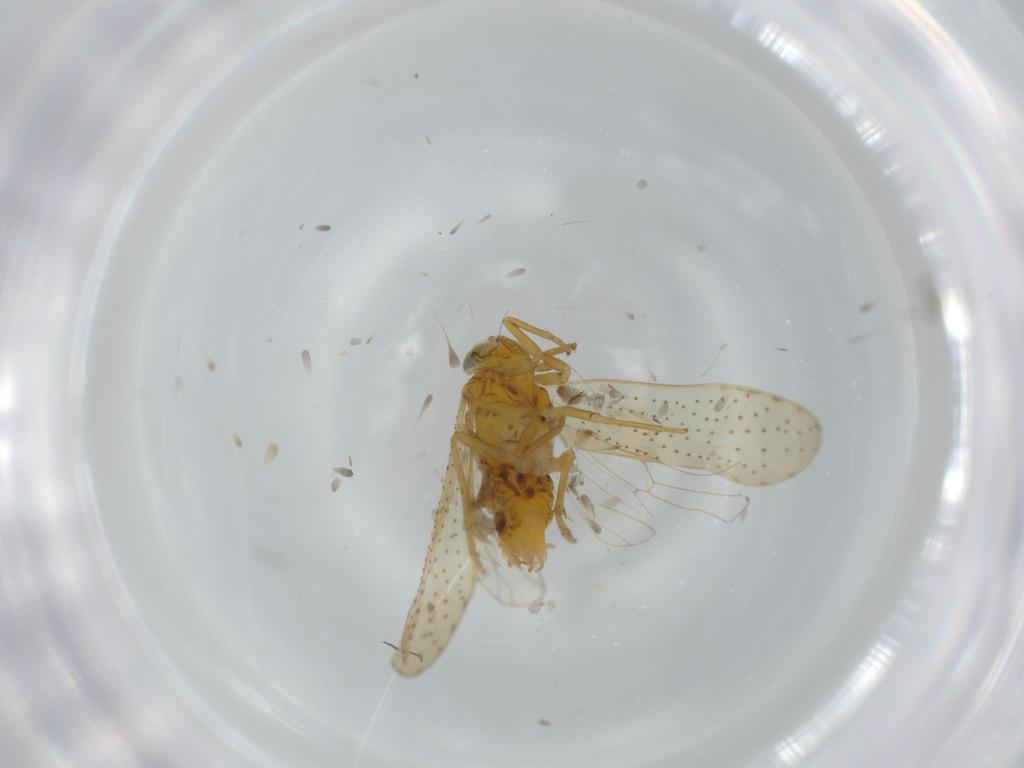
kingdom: Animalia
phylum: Arthropoda
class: Insecta
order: Hemiptera
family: Delphacidae
